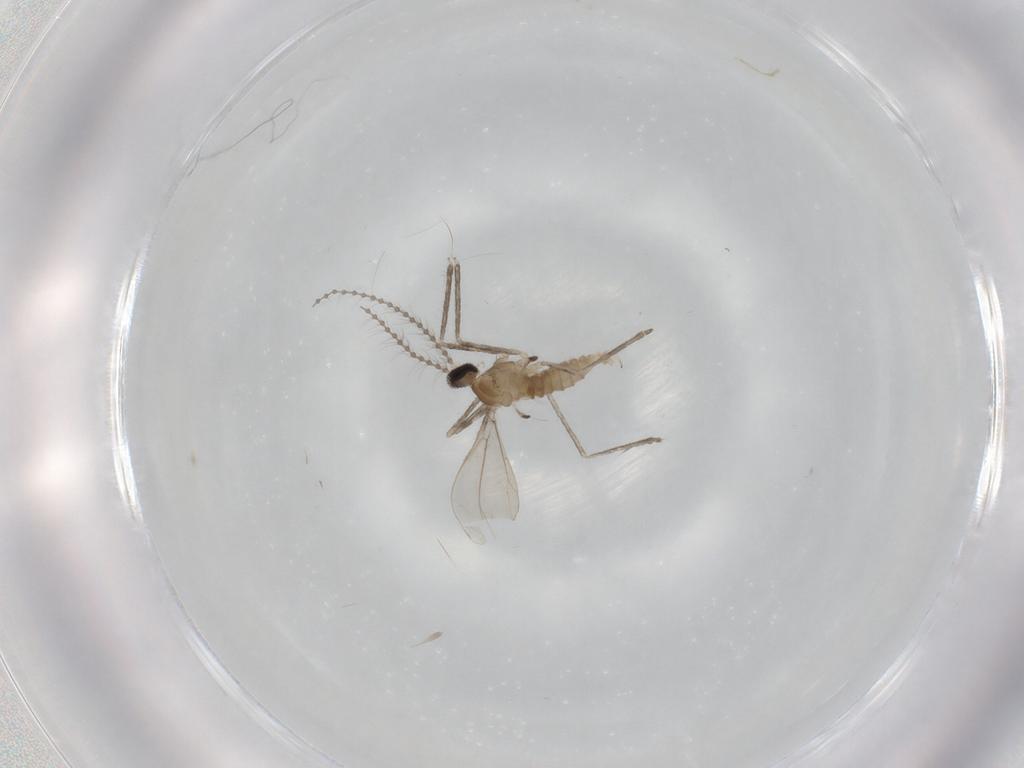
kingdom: Animalia
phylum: Arthropoda
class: Insecta
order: Diptera
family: Cecidomyiidae
